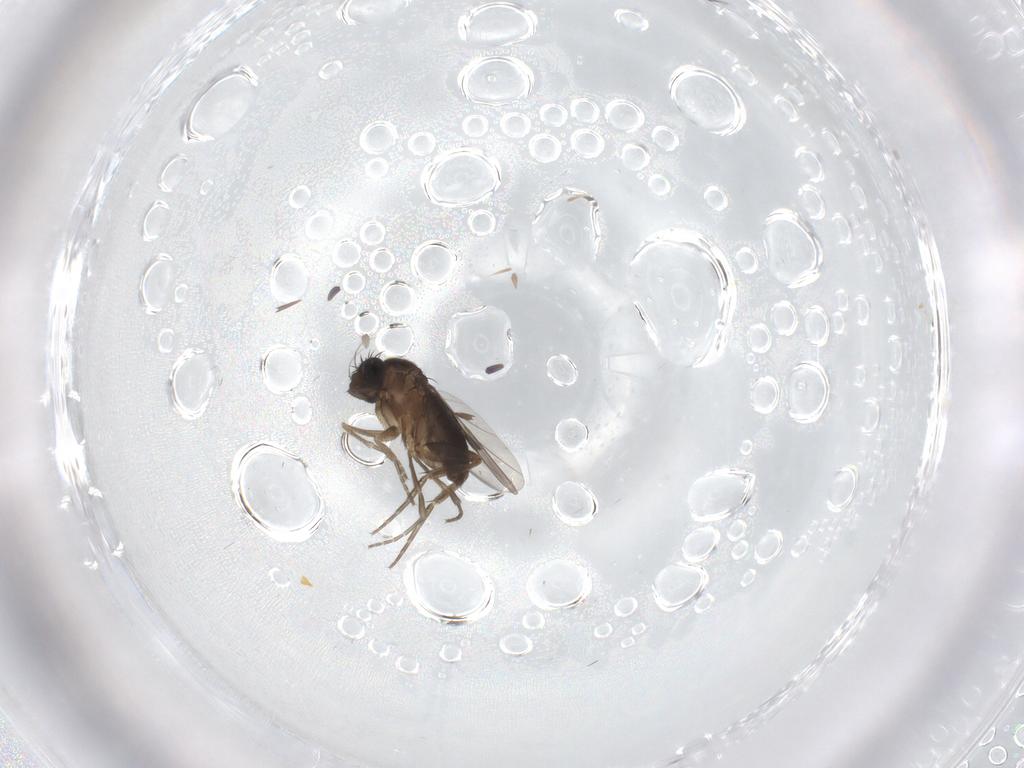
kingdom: Animalia
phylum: Arthropoda
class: Insecta
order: Diptera
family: Phoridae
